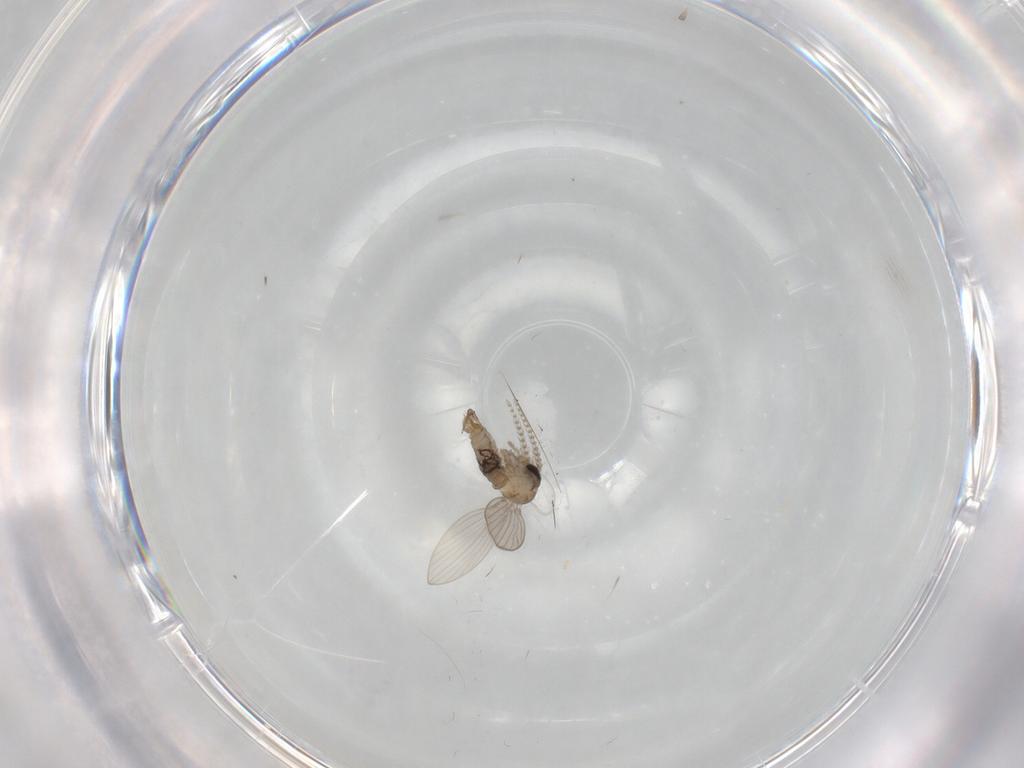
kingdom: Animalia
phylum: Arthropoda
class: Insecta
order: Diptera
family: Psychodidae
